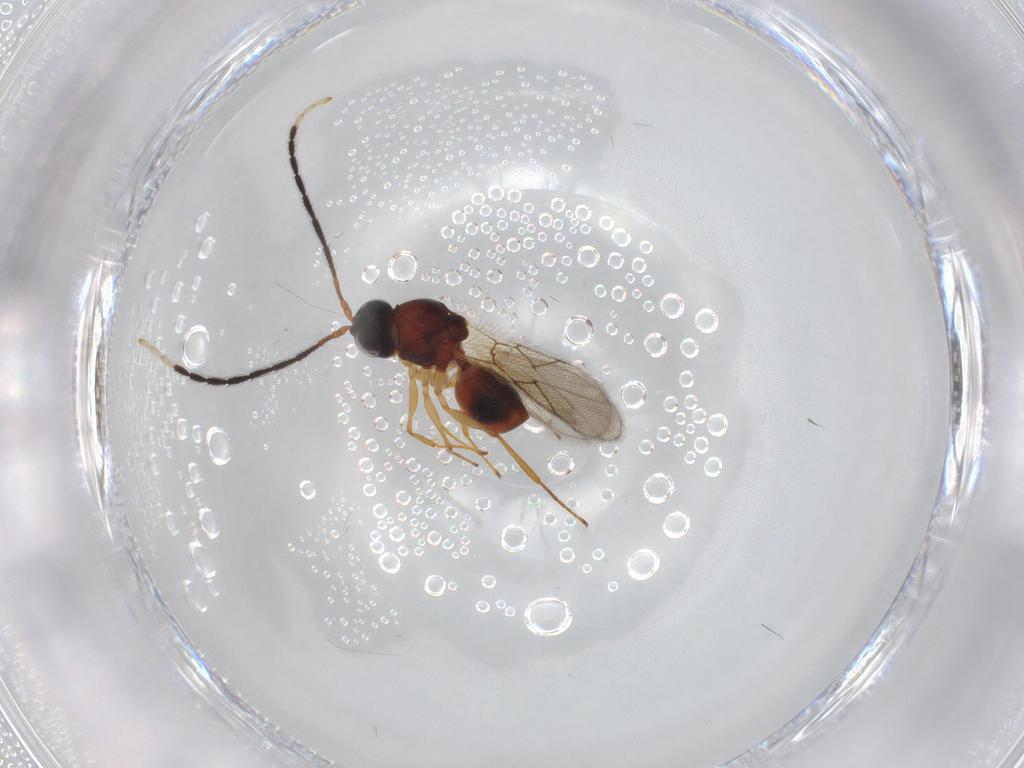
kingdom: Animalia
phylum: Arthropoda
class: Insecta
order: Hymenoptera
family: Figitidae
